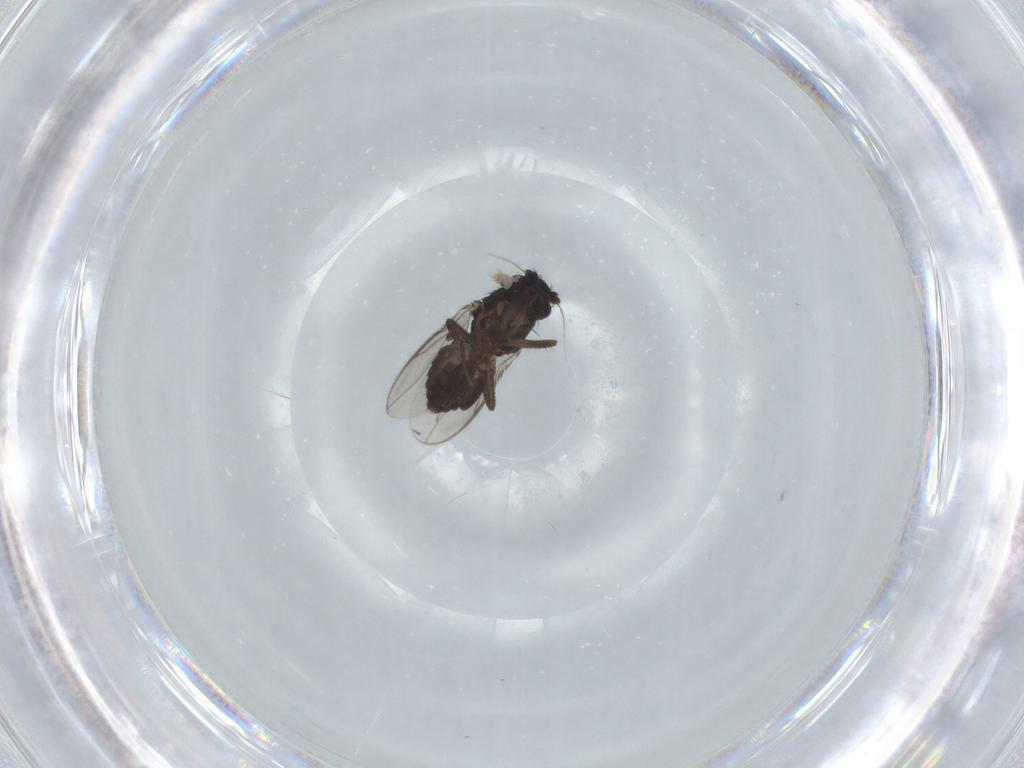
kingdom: Animalia
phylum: Arthropoda
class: Insecta
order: Diptera
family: Sphaeroceridae
